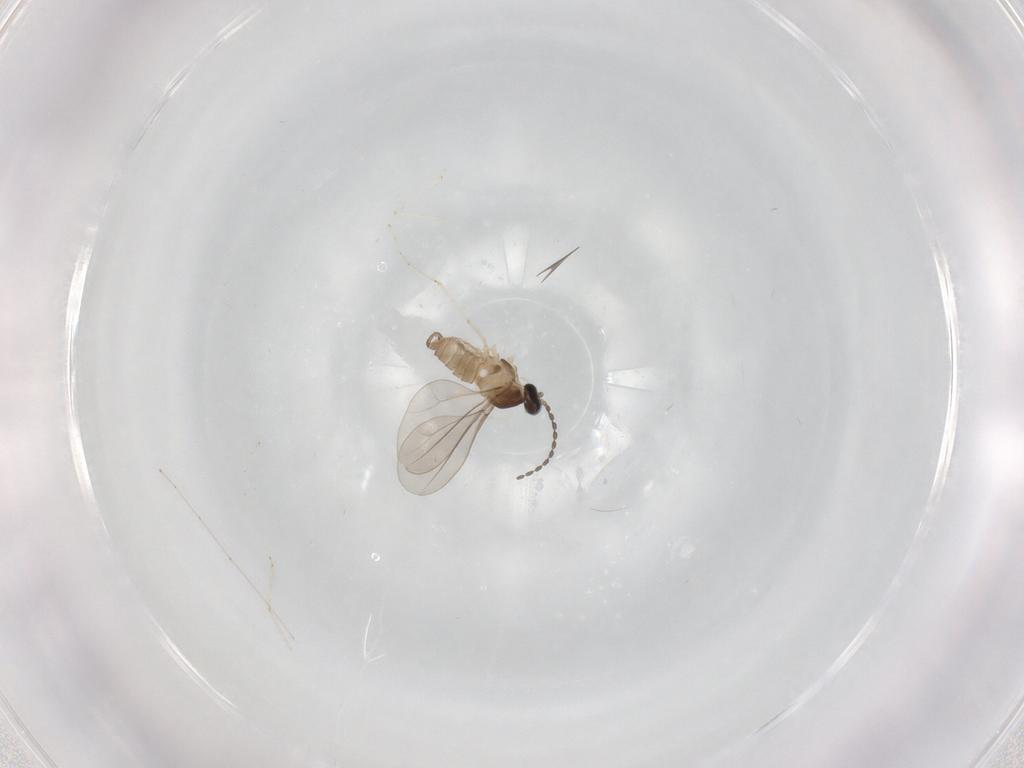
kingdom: Animalia
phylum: Arthropoda
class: Insecta
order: Diptera
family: Cecidomyiidae
